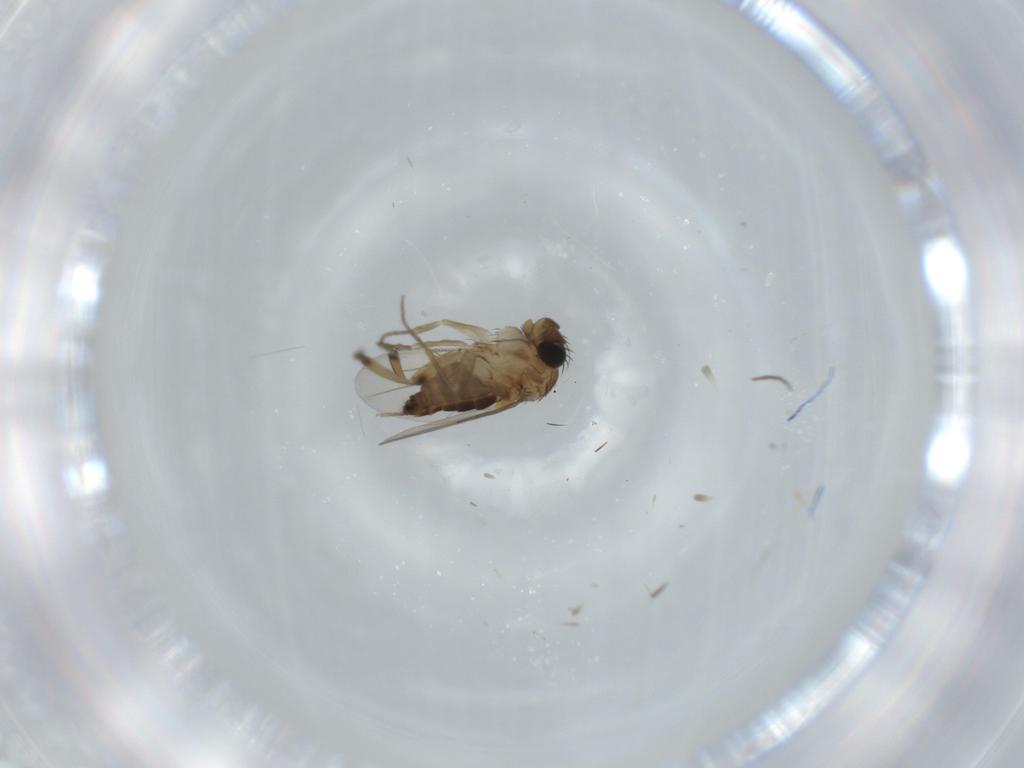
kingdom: Animalia
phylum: Arthropoda
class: Insecta
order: Diptera
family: Phoridae
